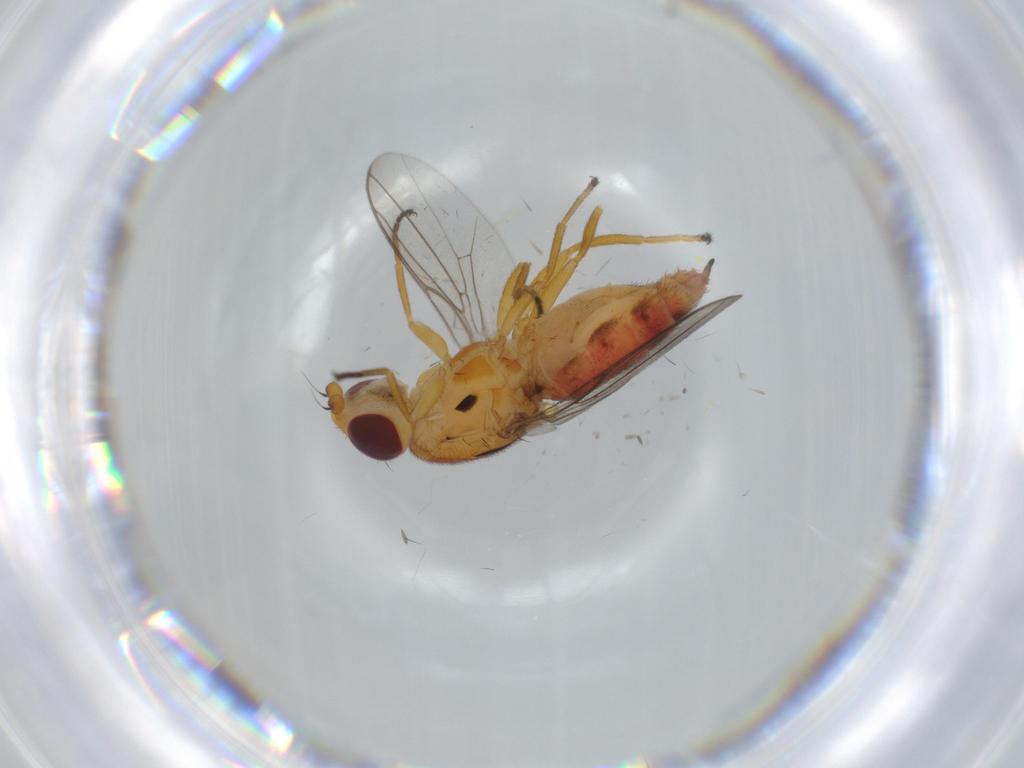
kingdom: Animalia
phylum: Arthropoda
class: Insecta
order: Diptera
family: Chloropidae
